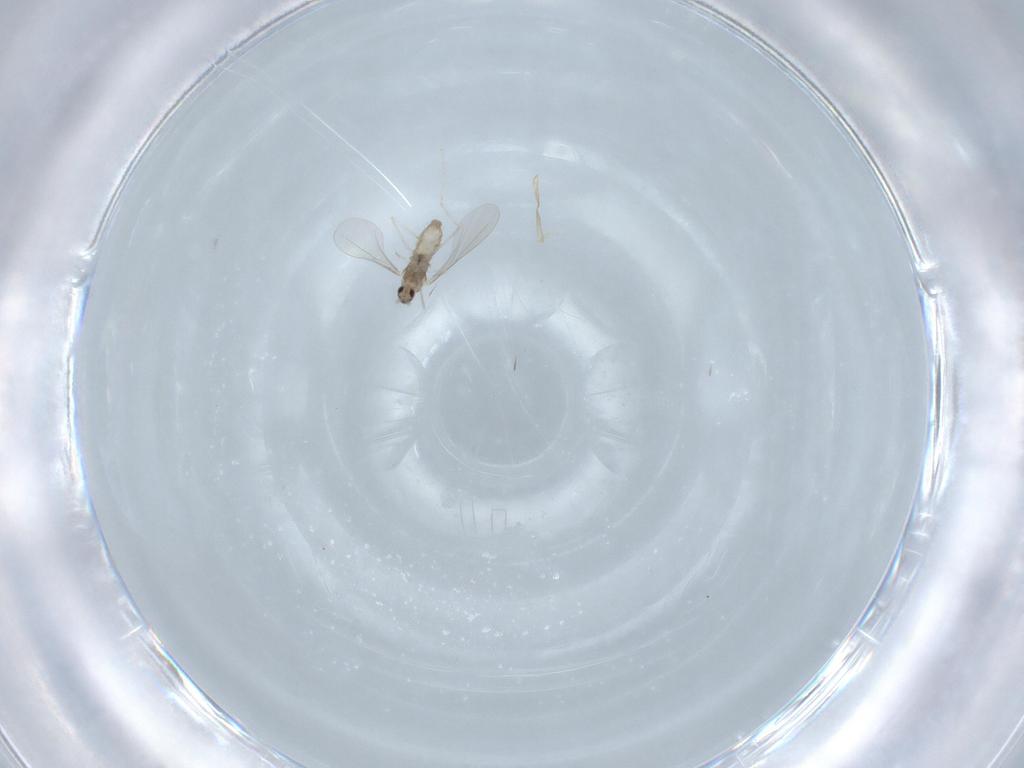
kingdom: Animalia
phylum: Arthropoda
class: Insecta
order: Diptera
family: Cecidomyiidae
